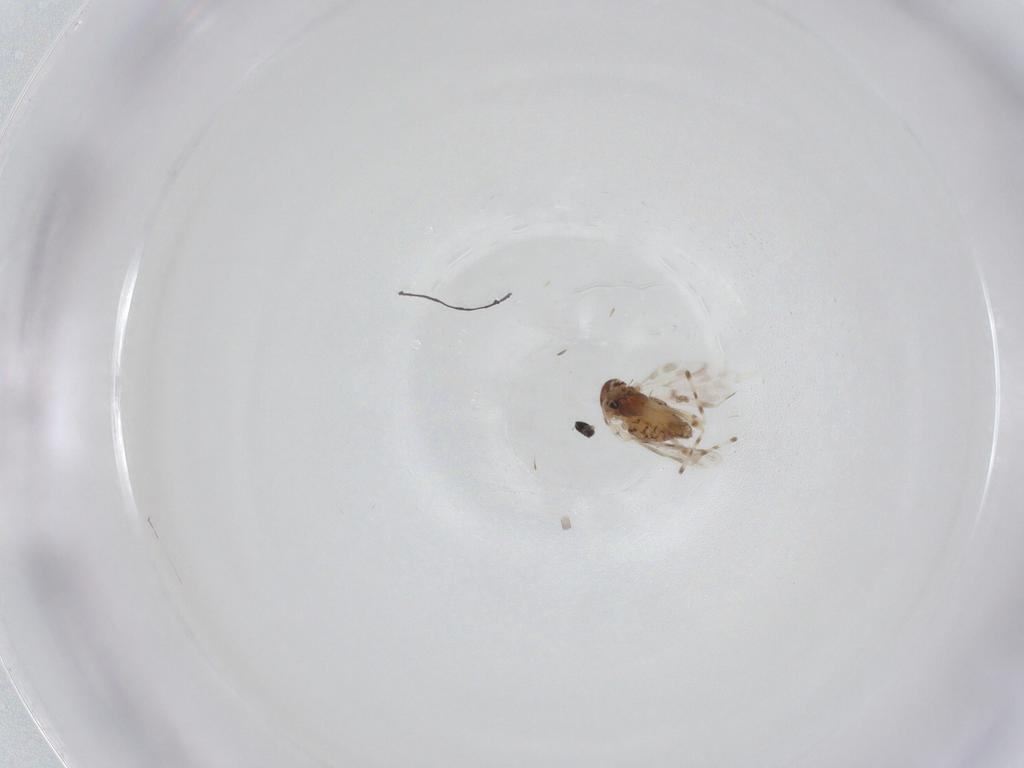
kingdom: Animalia
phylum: Arthropoda
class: Insecta
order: Diptera
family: Chironomidae
